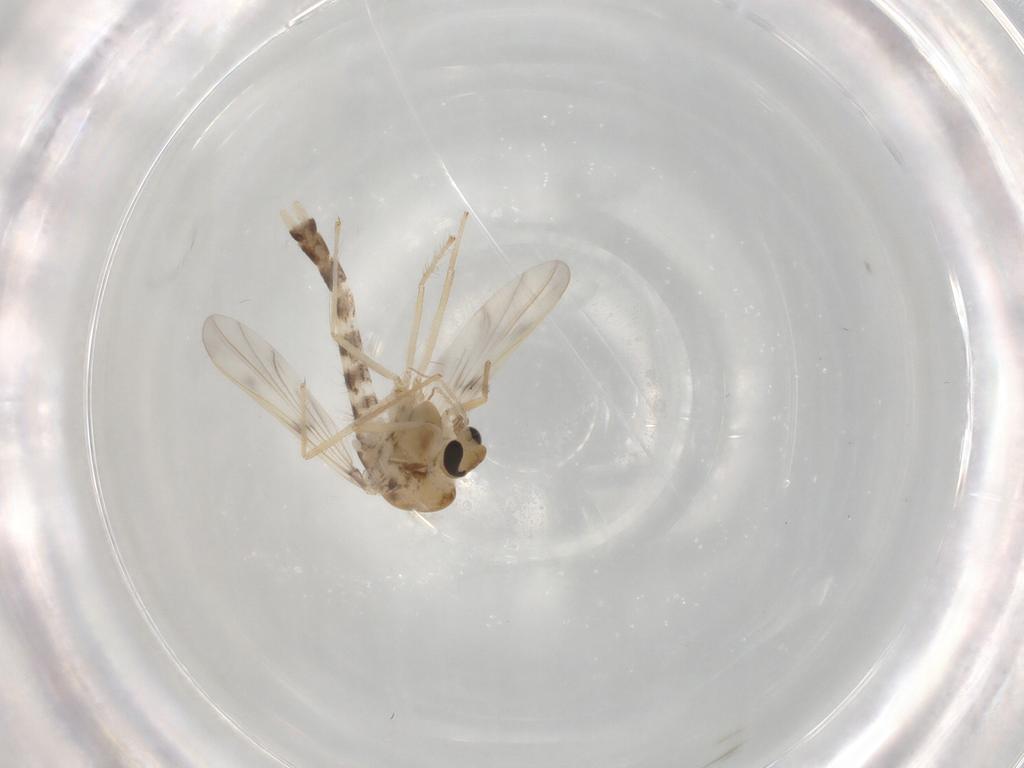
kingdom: Animalia
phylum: Arthropoda
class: Insecta
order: Diptera
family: Chironomidae
